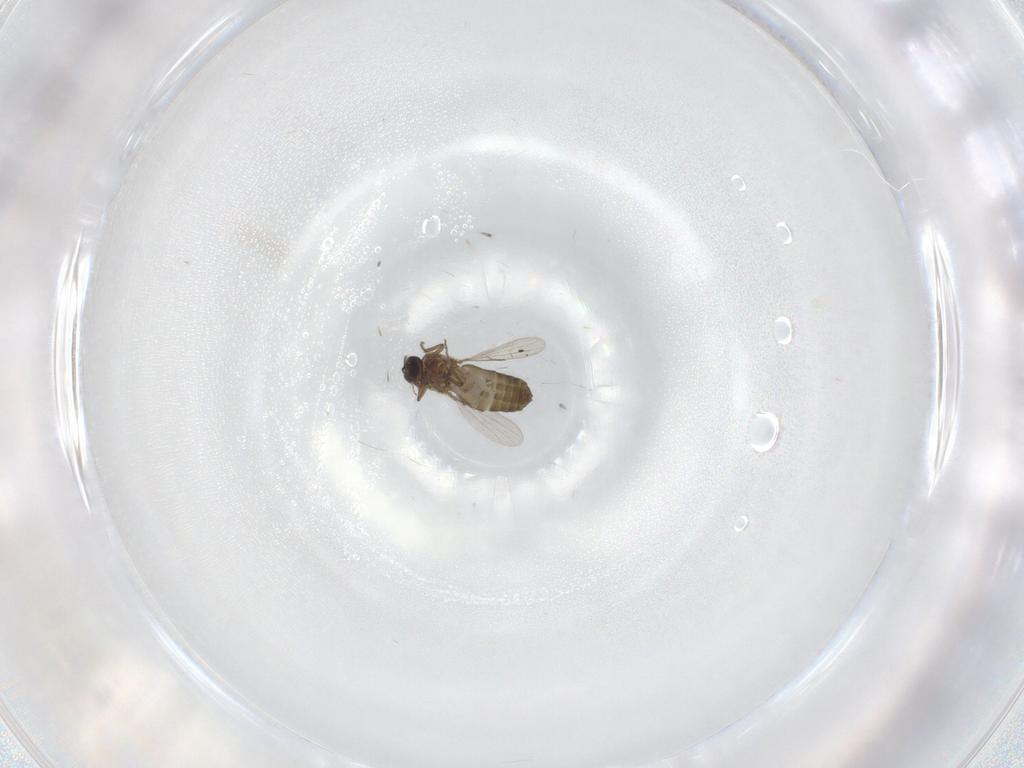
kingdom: Animalia
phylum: Arthropoda
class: Insecta
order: Diptera
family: Ceratopogonidae
